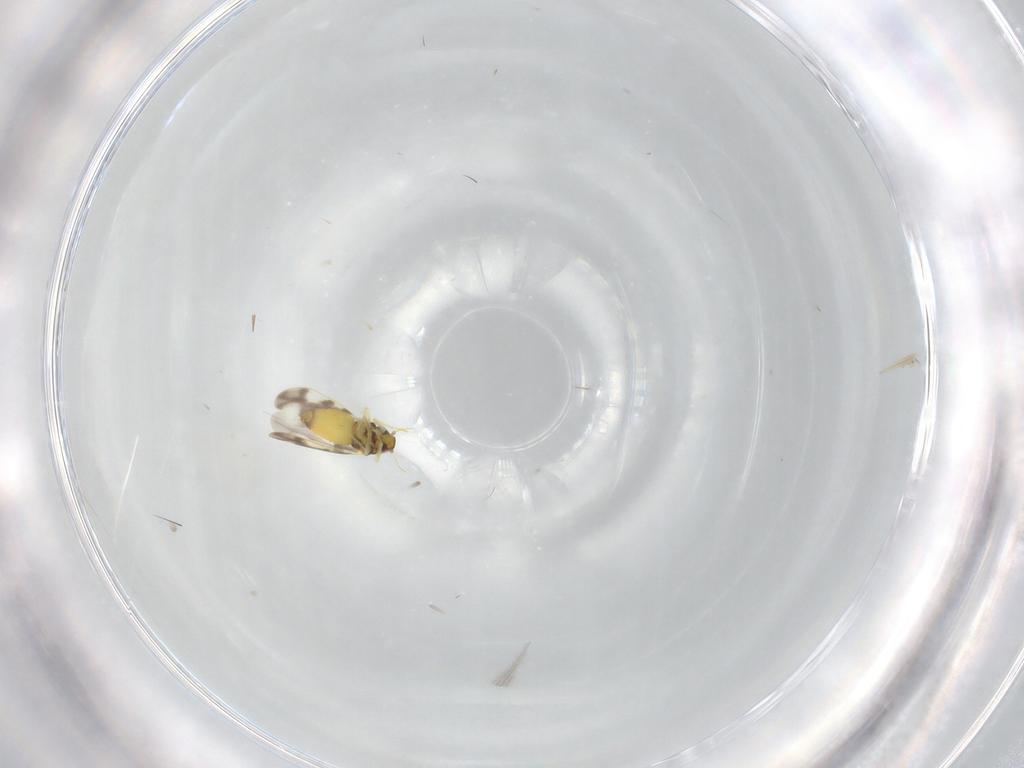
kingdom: Animalia
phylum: Arthropoda
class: Insecta
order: Hemiptera
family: Aleyrodidae
